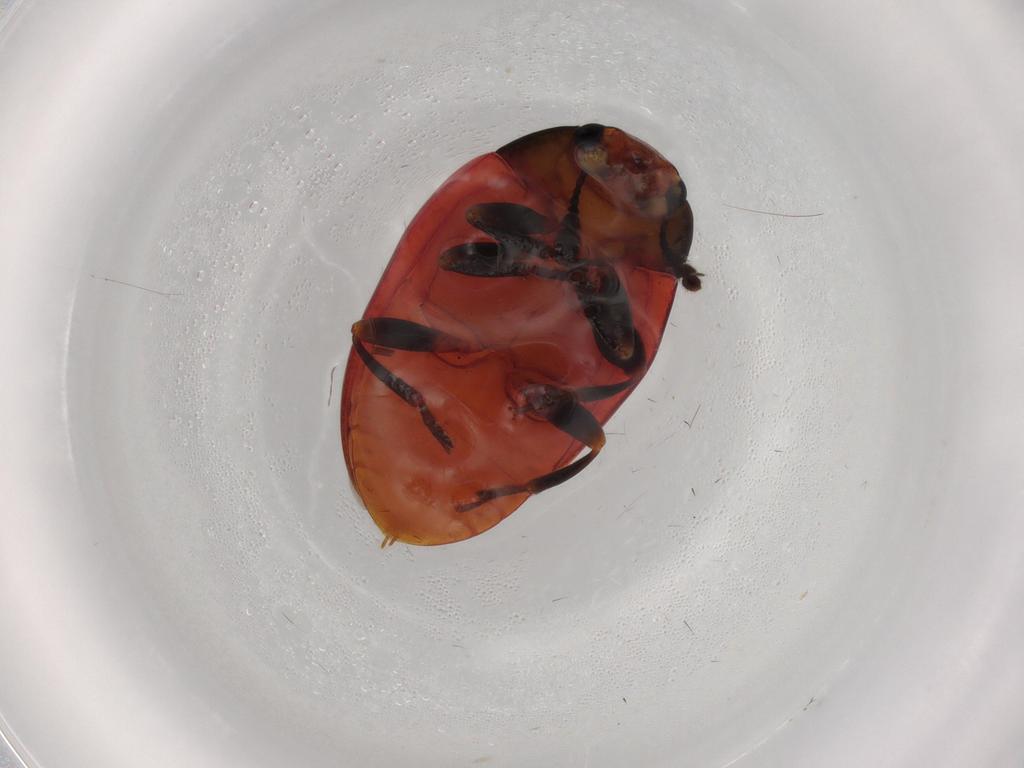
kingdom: Animalia
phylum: Arthropoda
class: Insecta
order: Coleoptera
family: Erotylidae
